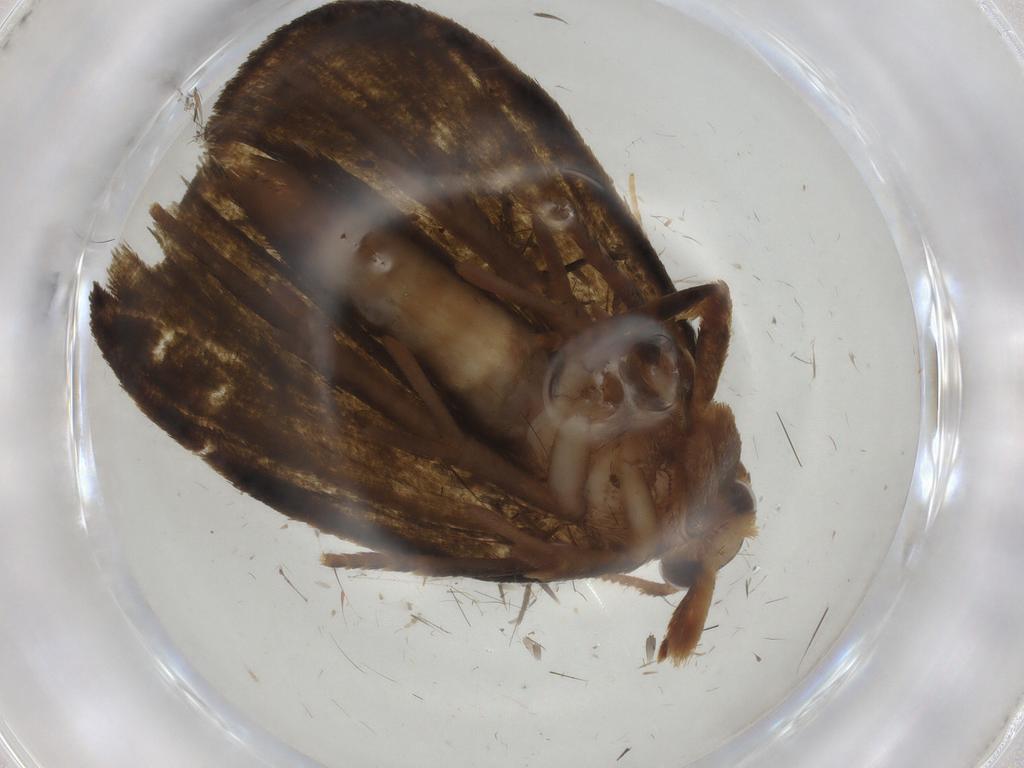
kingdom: Animalia
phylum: Arthropoda
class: Insecta
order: Lepidoptera
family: Geometridae
